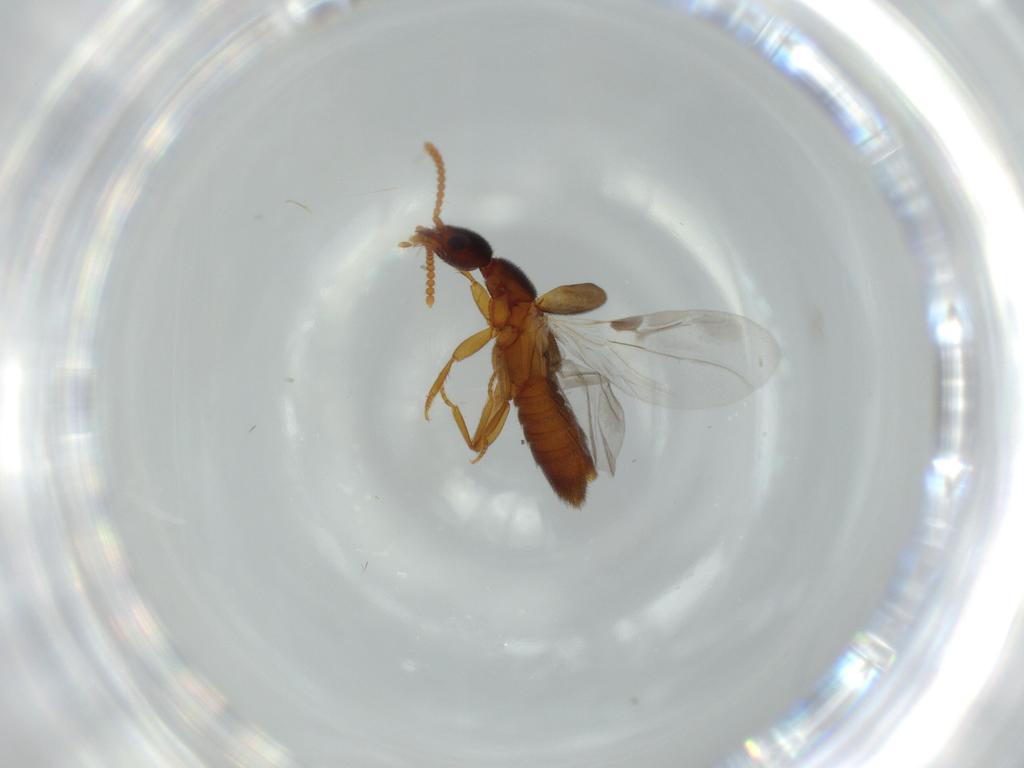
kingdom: Animalia
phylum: Arthropoda
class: Insecta
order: Coleoptera
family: Staphylinidae
